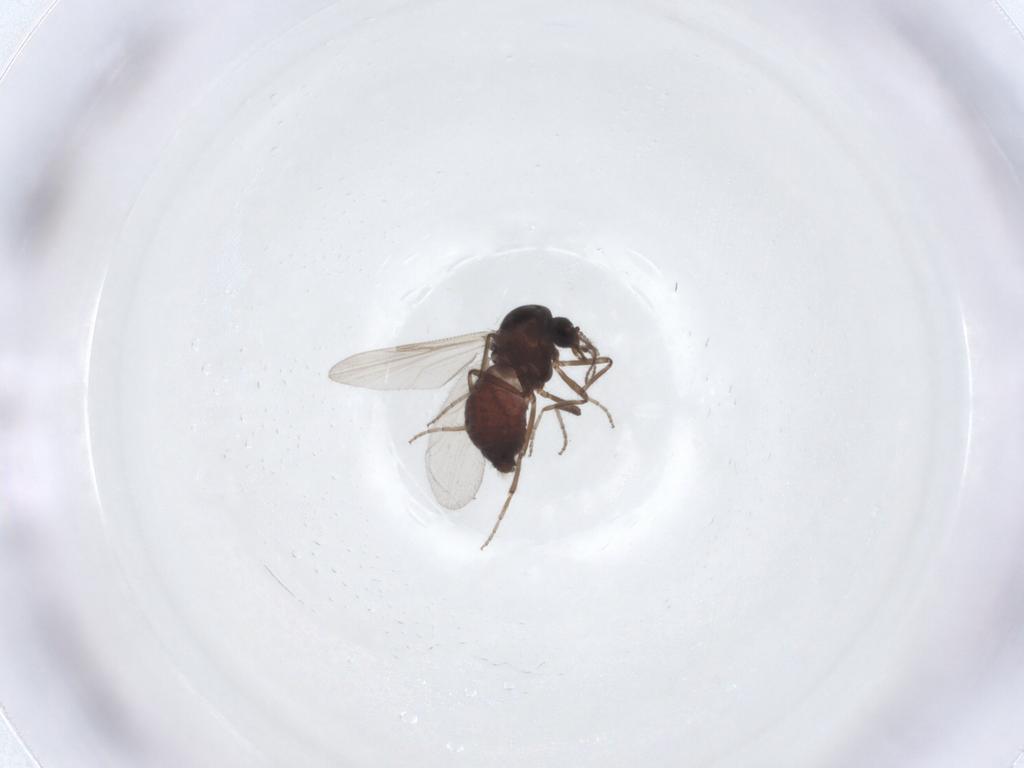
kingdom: Animalia
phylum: Arthropoda
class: Insecta
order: Diptera
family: Ceratopogonidae
